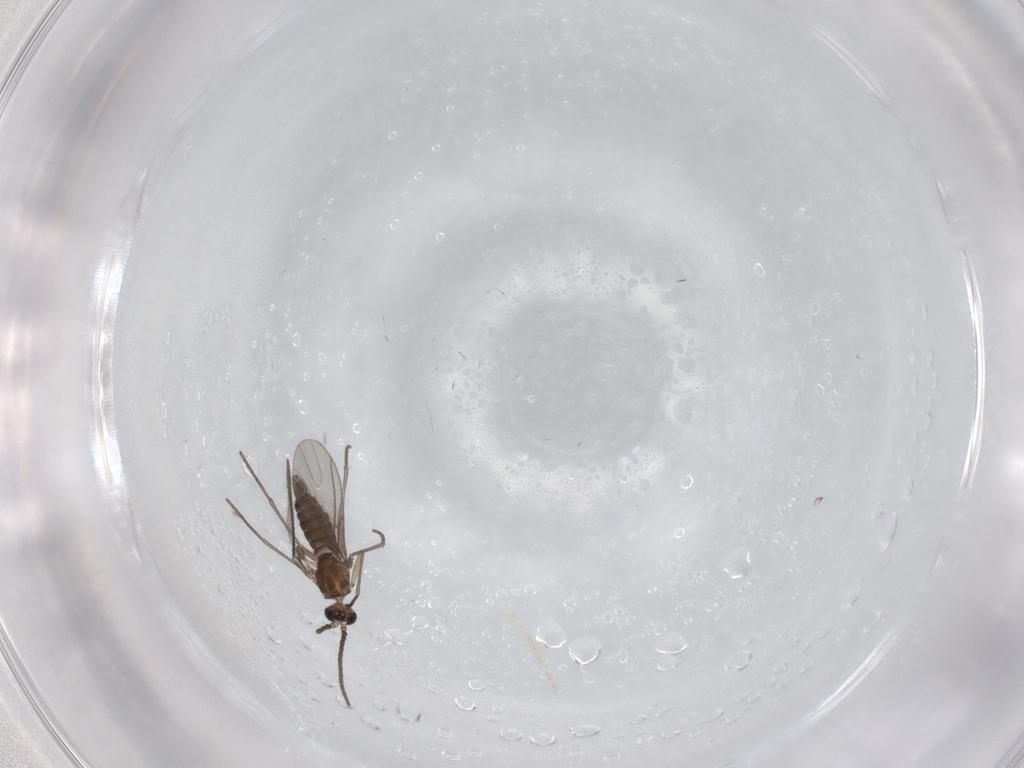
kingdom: Animalia
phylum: Arthropoda
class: Insecta
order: Diptera
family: Sciaridae
